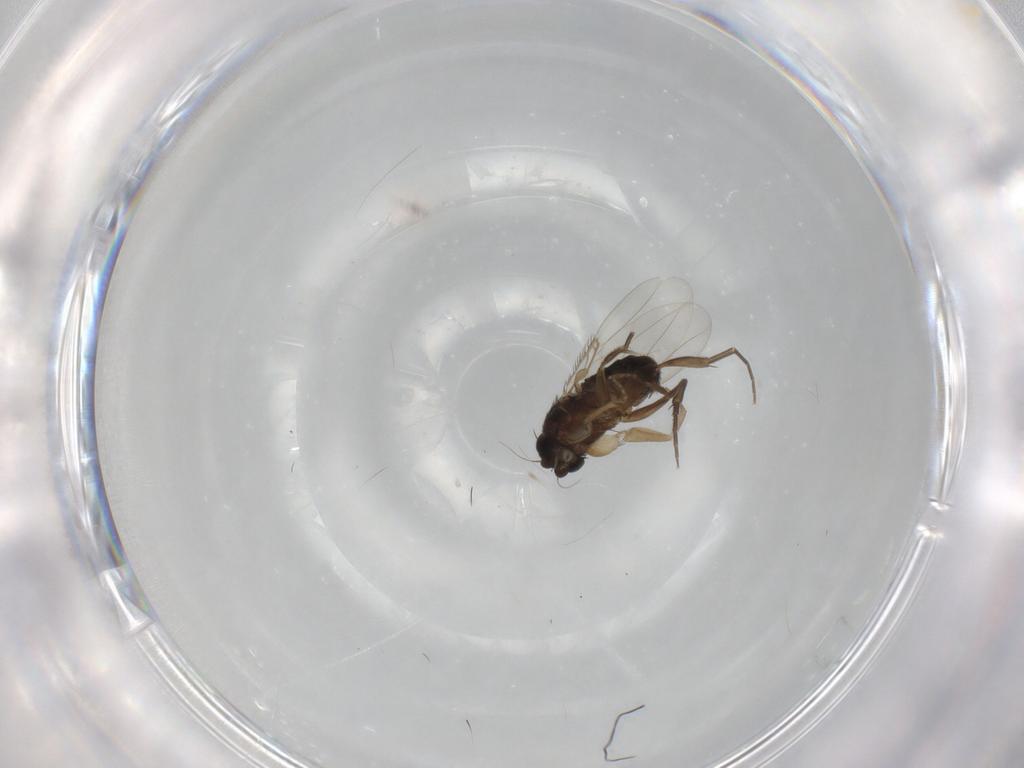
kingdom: Animalia
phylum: Arthropoda
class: Insecta
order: Diptera
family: Phoridae
